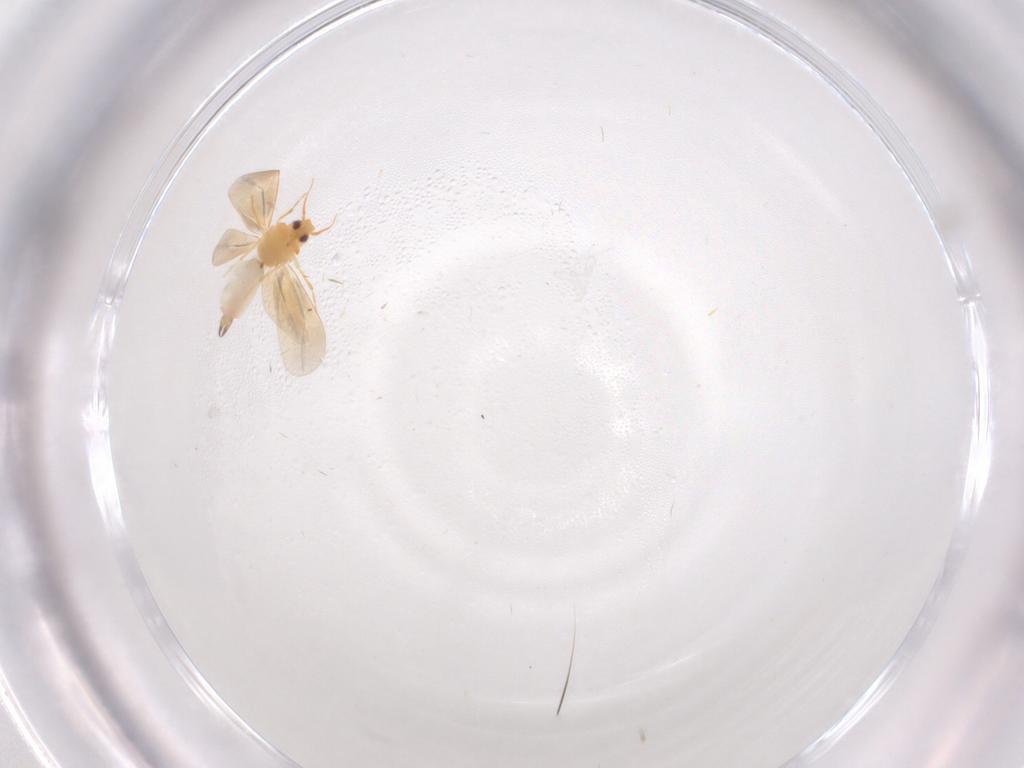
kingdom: Animalia
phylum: Arthropoda
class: Insecta
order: Hemiptera
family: Aleyrodidae
